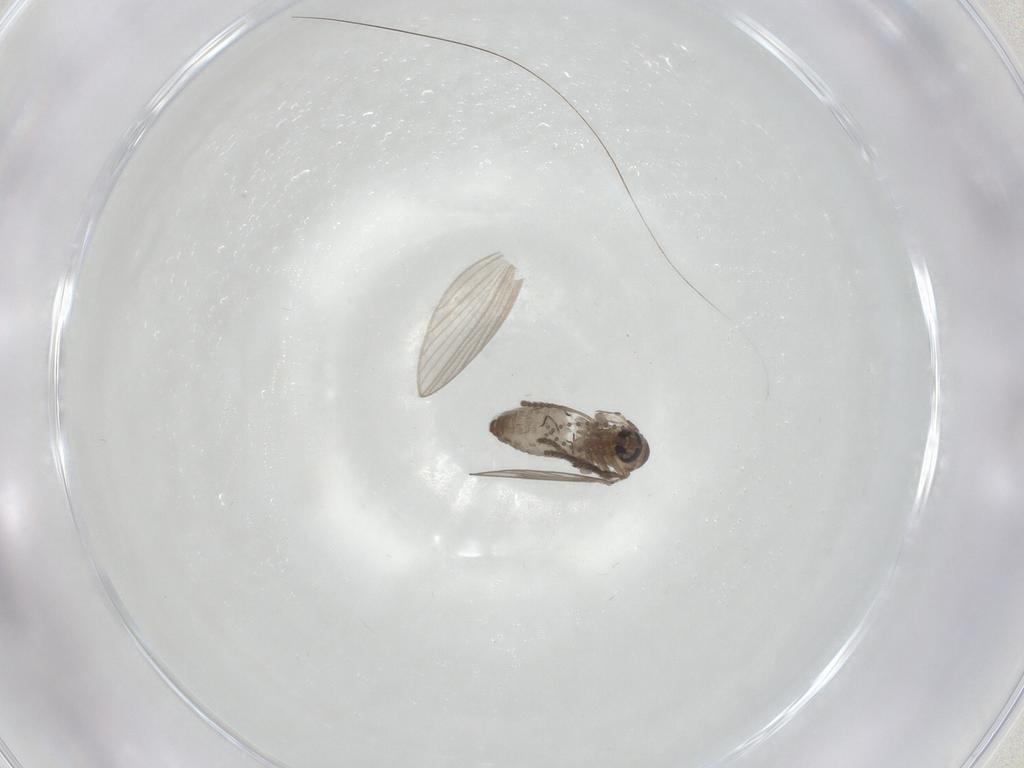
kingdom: Animalia
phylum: Arthropoda
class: Insecta
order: Diptera
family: Psychodidae
